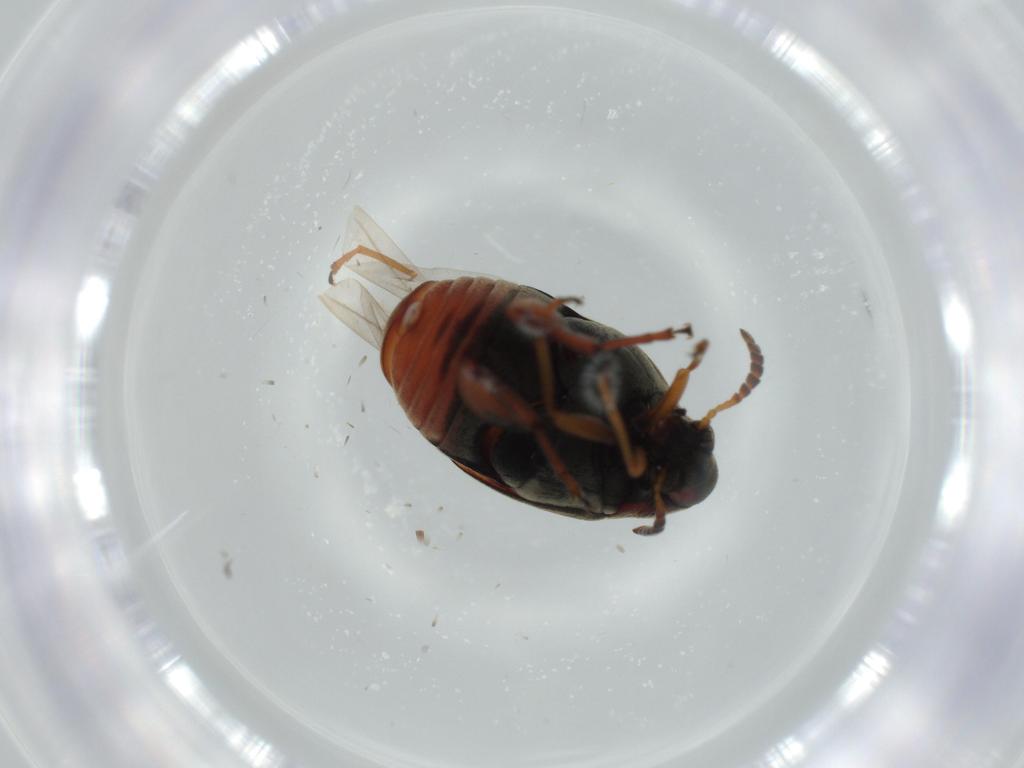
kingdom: Animalia
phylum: Arthropoda
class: Insecta
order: Coleoptera
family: Chrysomelidae
